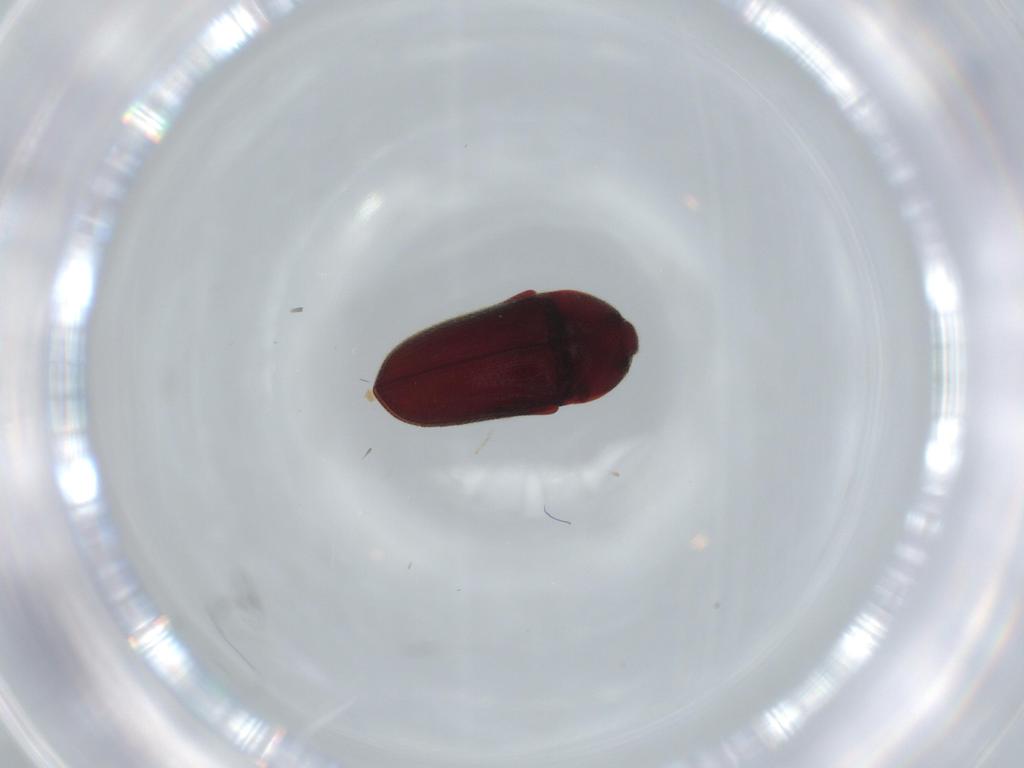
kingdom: Animalia
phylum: Arthropoda
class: Insecta
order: Coleoptera
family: Throscidae
